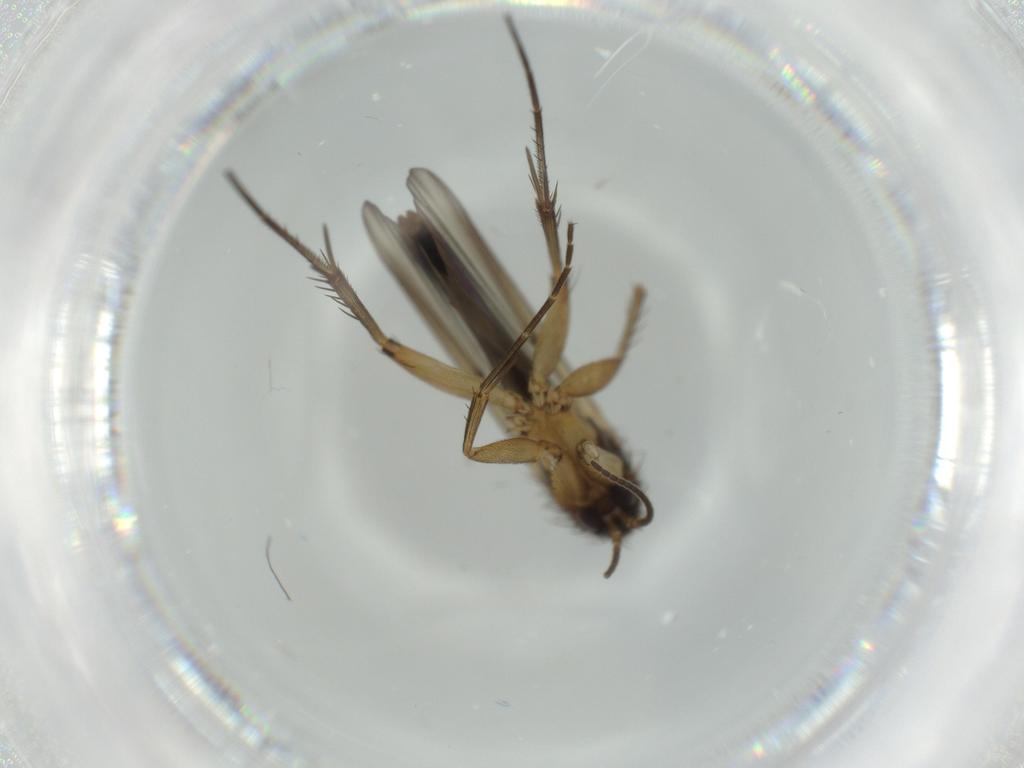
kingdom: Animalia
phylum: Arthropoda
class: Insecta
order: Diptera
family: Mycetophilidae
